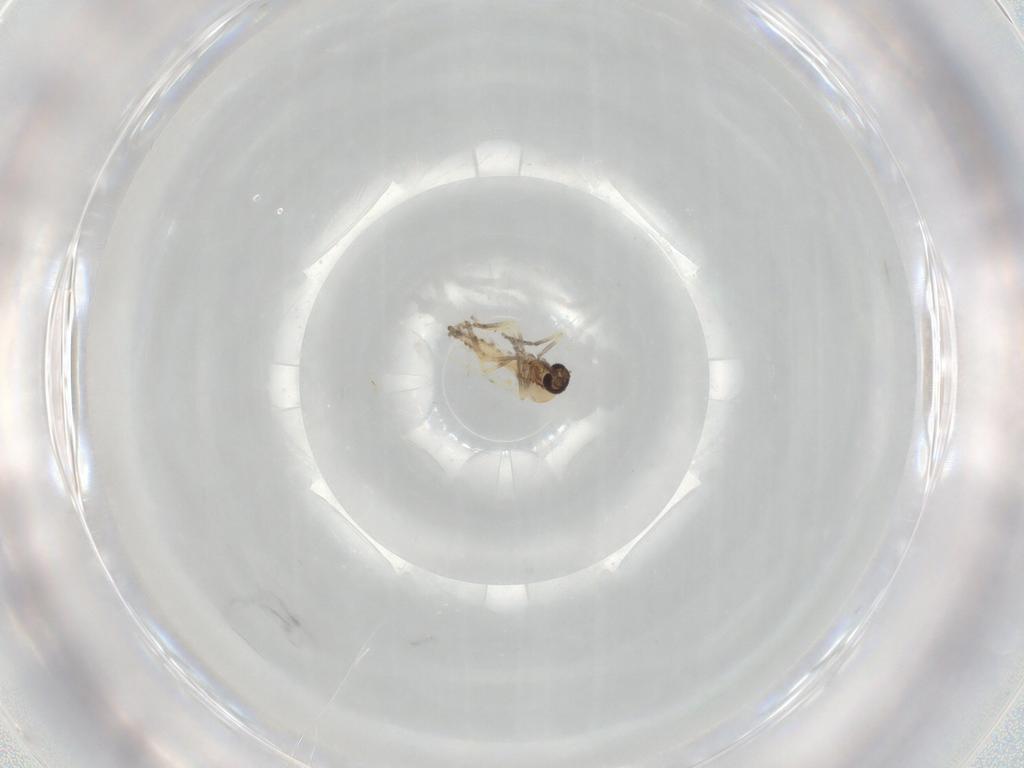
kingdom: Animalia
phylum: Arthropoda
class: Insecta
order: Diptera
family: Ceratopogonidae
